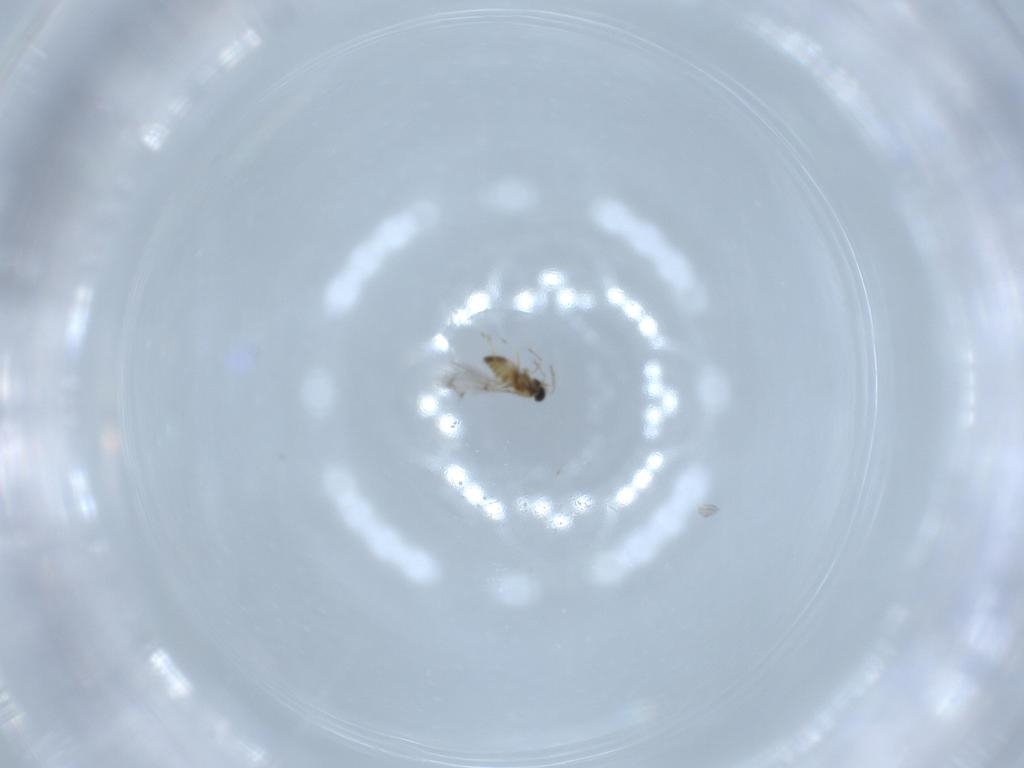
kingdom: Animalia
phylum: Arthropoda
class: Insecta
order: Hymenoptera
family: Trichogrammatidae
